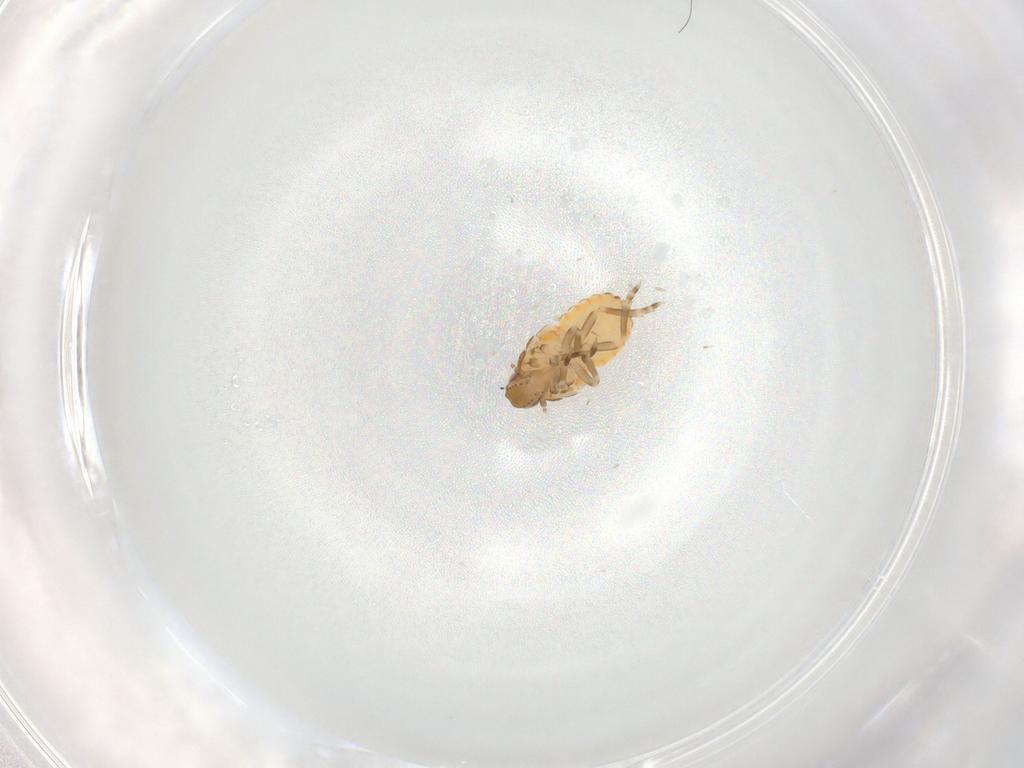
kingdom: Animalia
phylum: Arthropoda
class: Insecta
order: Hemiptera
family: Flatidae
